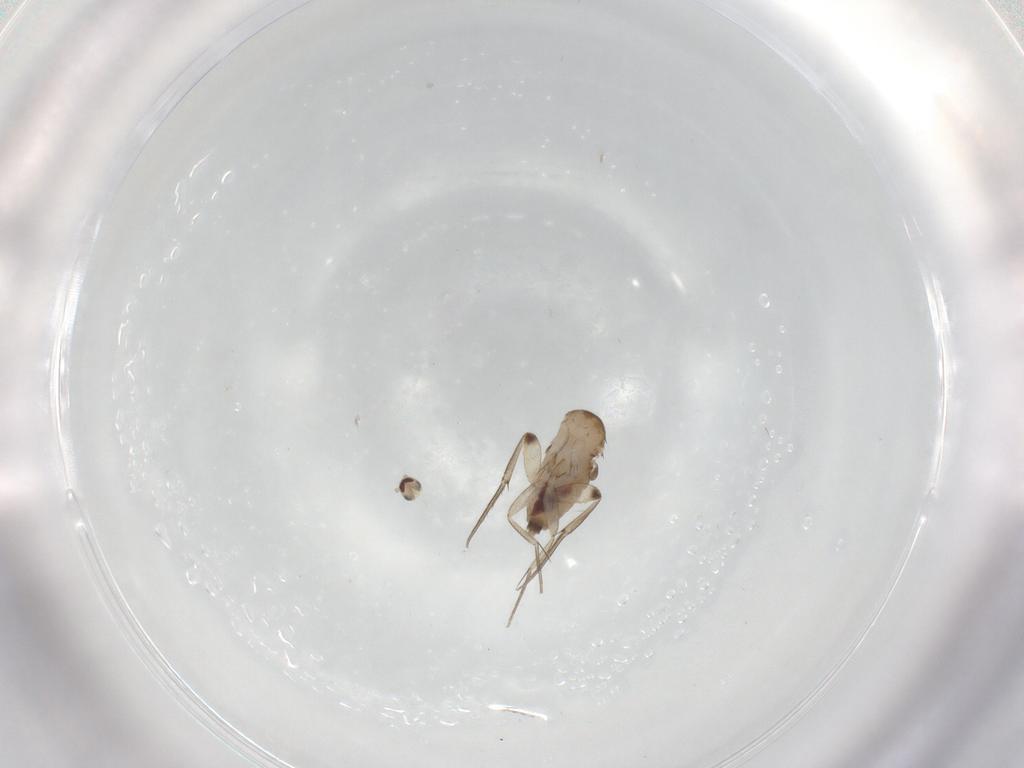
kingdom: Animalia
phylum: Arthropoda
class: Insecta
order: Diptera
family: Phoridae
